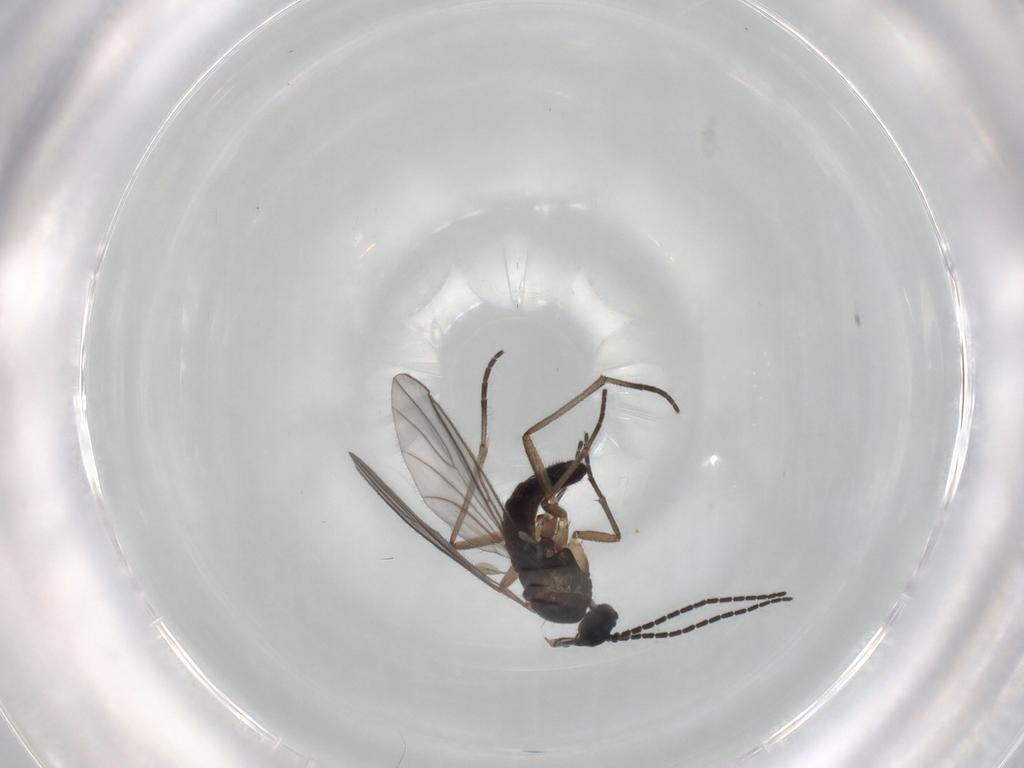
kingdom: Animalia
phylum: Arthropoda
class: Insecta
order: Diptera
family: Sciaridae
